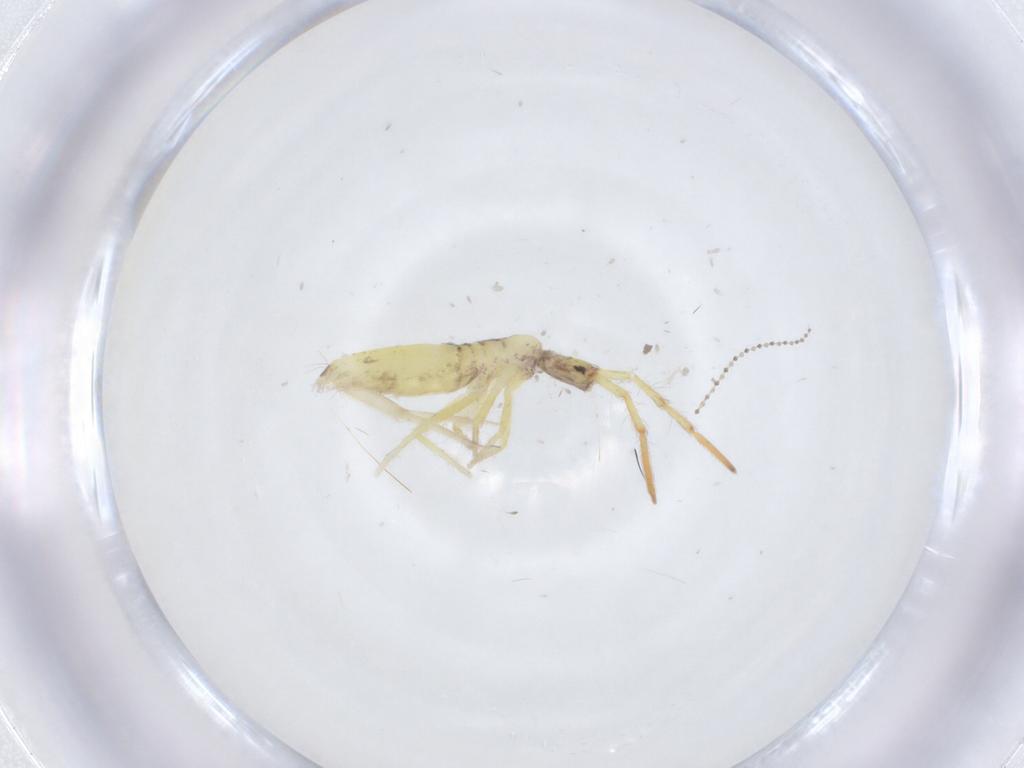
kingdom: Animalia
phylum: Arthropoda
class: Collembola
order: Entomobryomorpha
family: Entomobryidae
